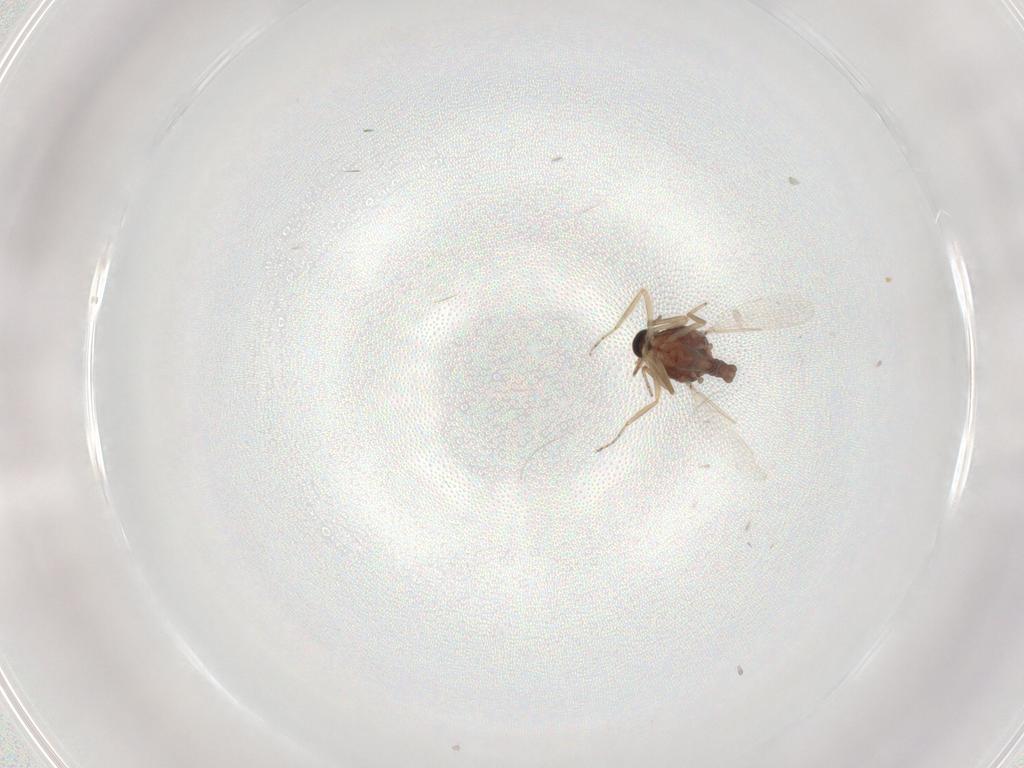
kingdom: Animalia
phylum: Arthropoda
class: Insecta
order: Diptera
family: Ceratopogonidae
